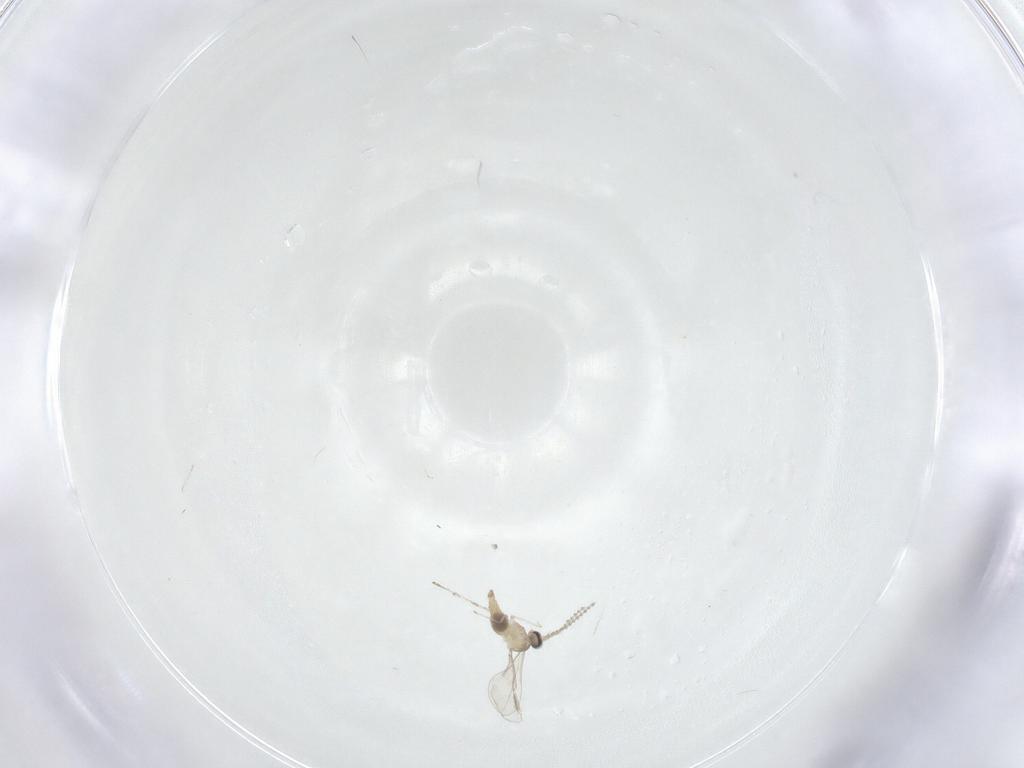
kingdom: Animalia
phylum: Arthropoda
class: Insecta
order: Diptera
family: Cecidomyiidae
